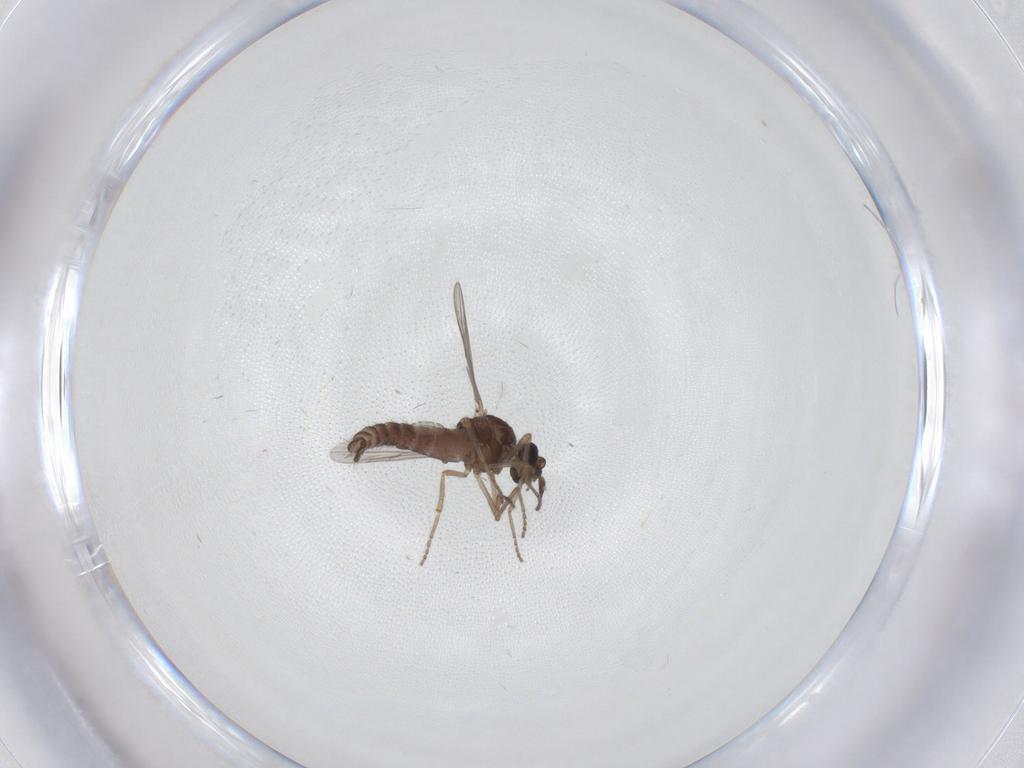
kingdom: Animalia
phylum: Arthropoda
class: Insecta
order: Diptera
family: Ceratopogonidae
